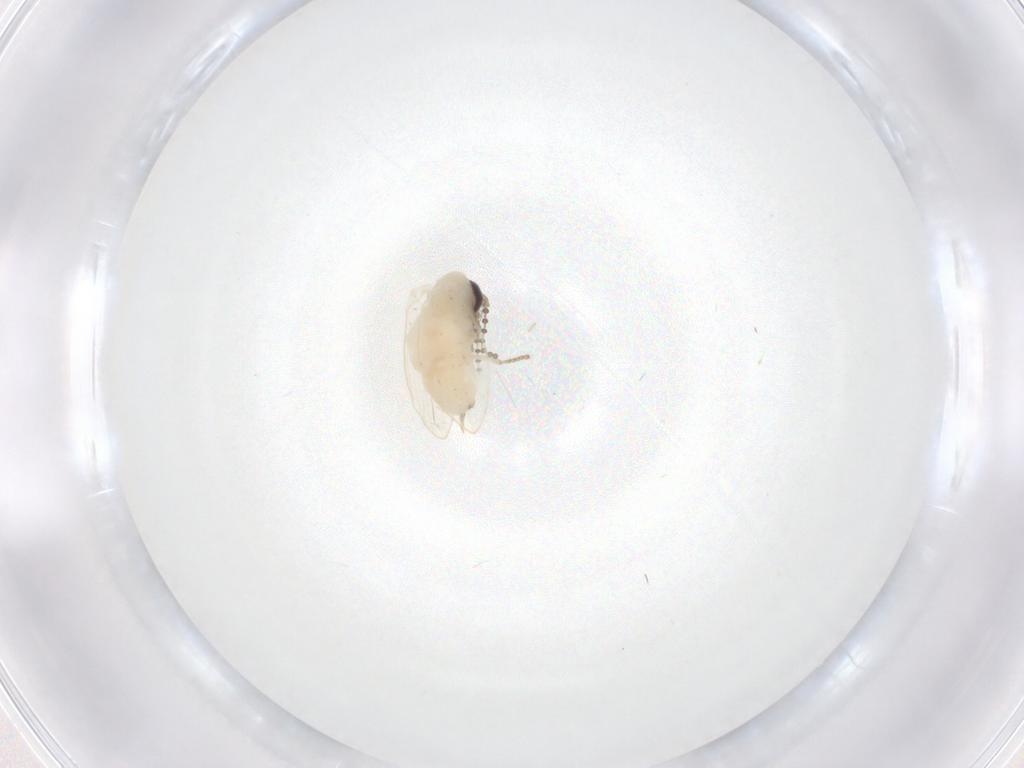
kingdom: Animalia
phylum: Arthropoda
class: Insecta
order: Diptera
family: Psychodidae
